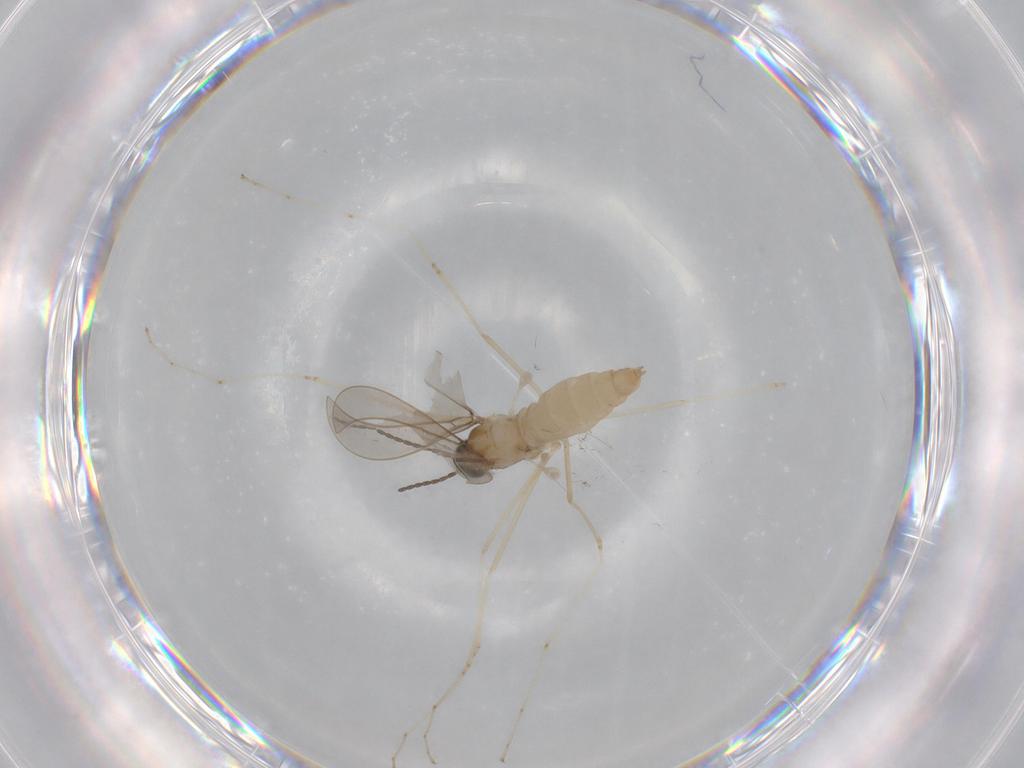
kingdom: Animalia
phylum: Arthropoda
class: Insecta
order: Diptera
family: Cecidomyiidae
